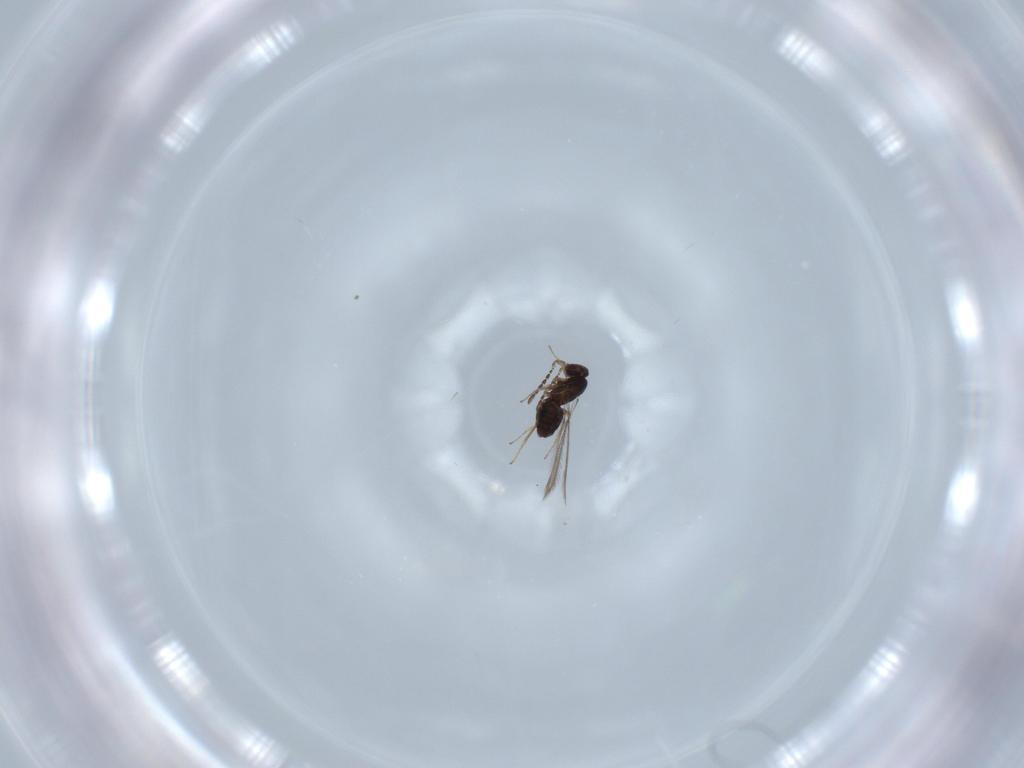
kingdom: Animalia
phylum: Arthropoda
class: Insecta
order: Hymenoptera
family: Mymaridae
